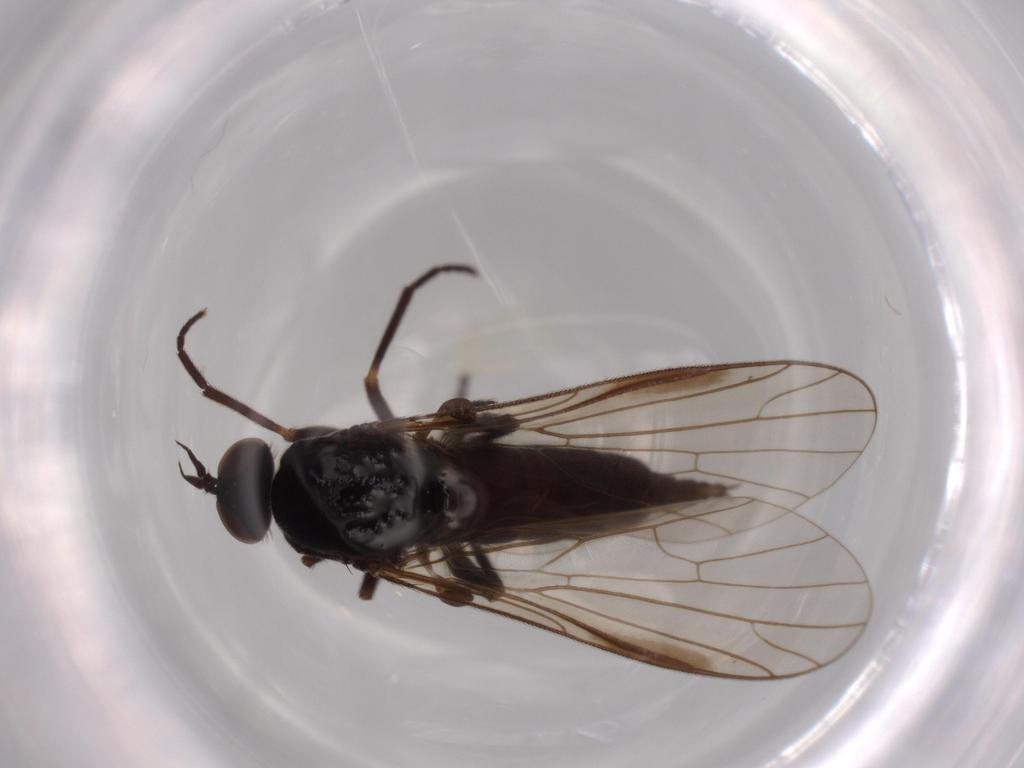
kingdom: Animalia
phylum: Arthropoda
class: Insecta
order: Diptera
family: Empididae
